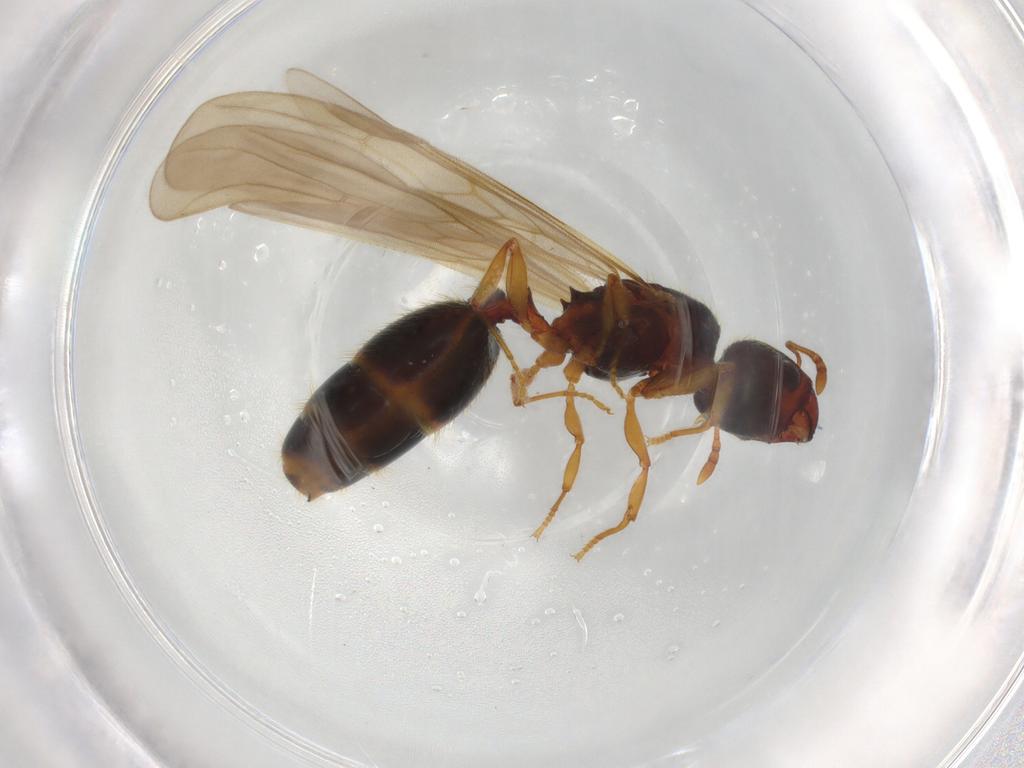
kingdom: Animalia
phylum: Arthropoda
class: Insecta
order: Hymenoptera
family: Formicidae
